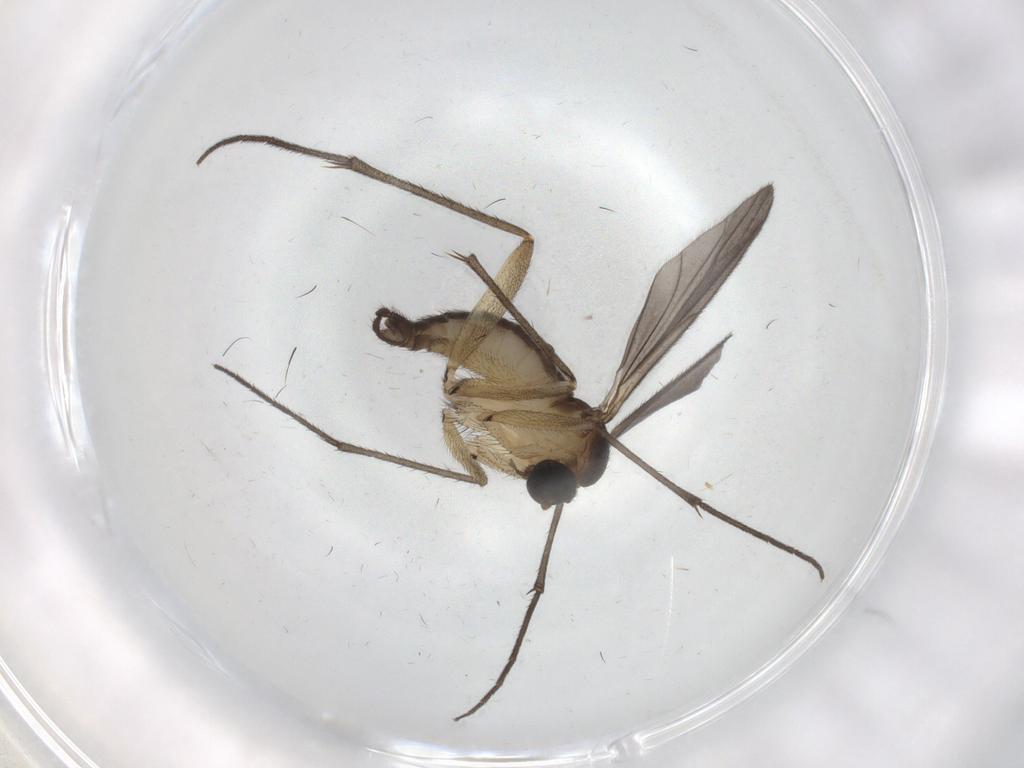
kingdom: Animalia
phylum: Arthropoda
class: Insecta
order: Diptera
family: Sciaridae
